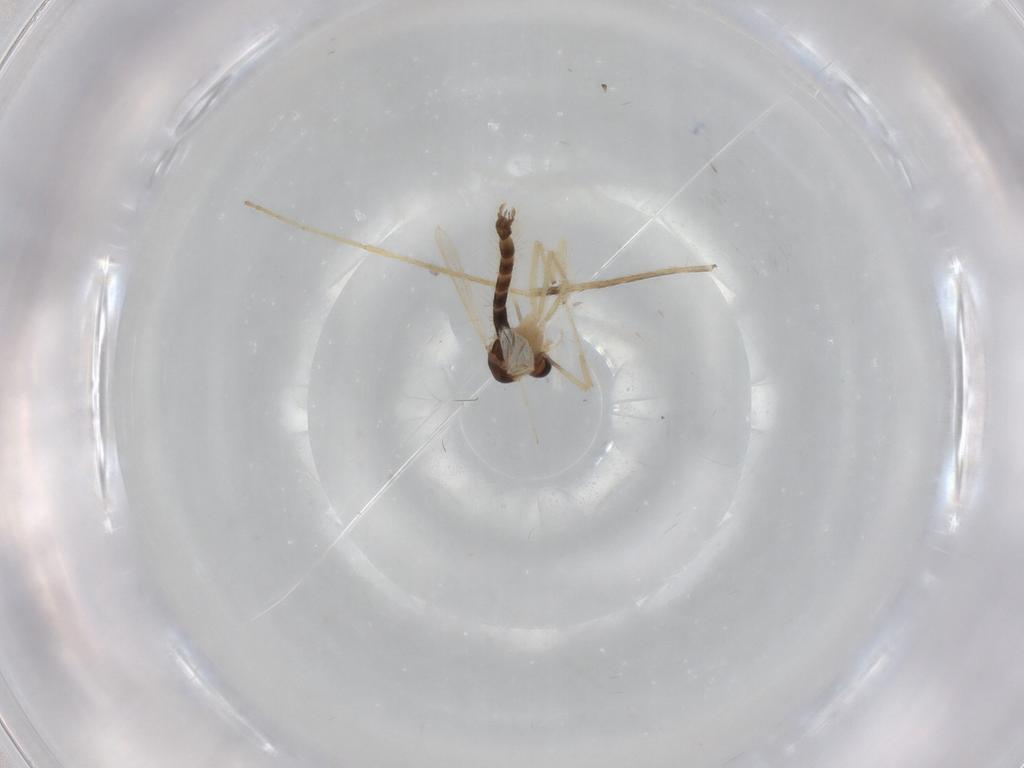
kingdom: Animalia
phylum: Arthropoda
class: Insecta
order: Diptera
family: Chironomidae
